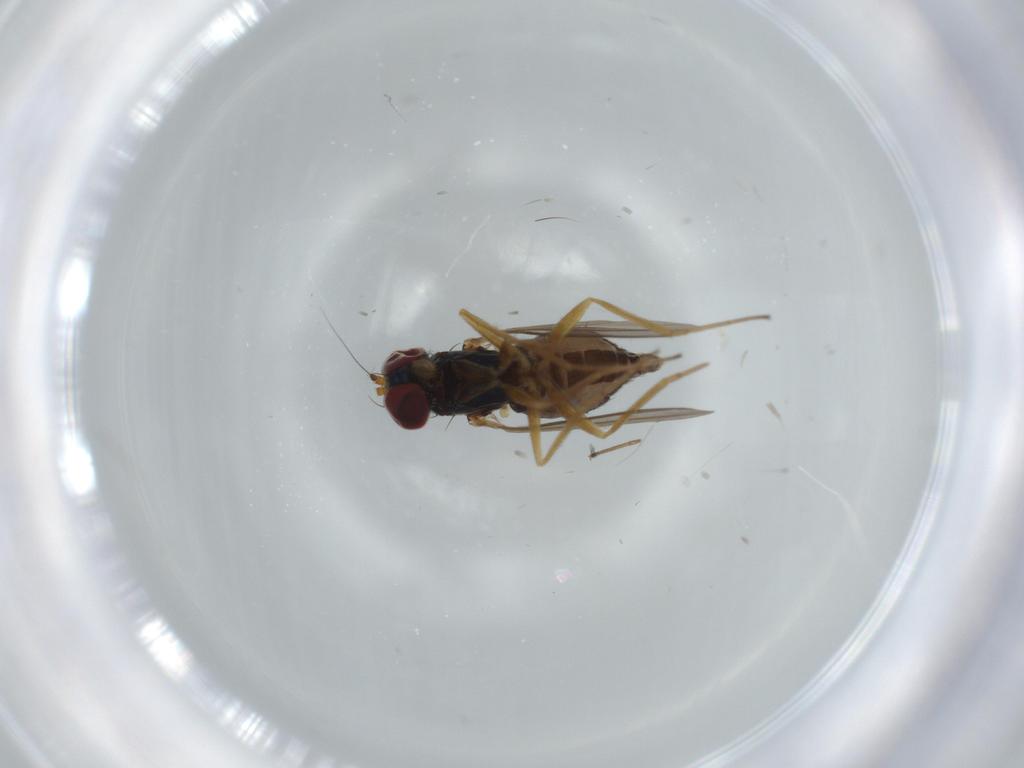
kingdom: Animalia
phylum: Arthropoda
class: Insecta
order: Diptera
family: Dolichopodidae
